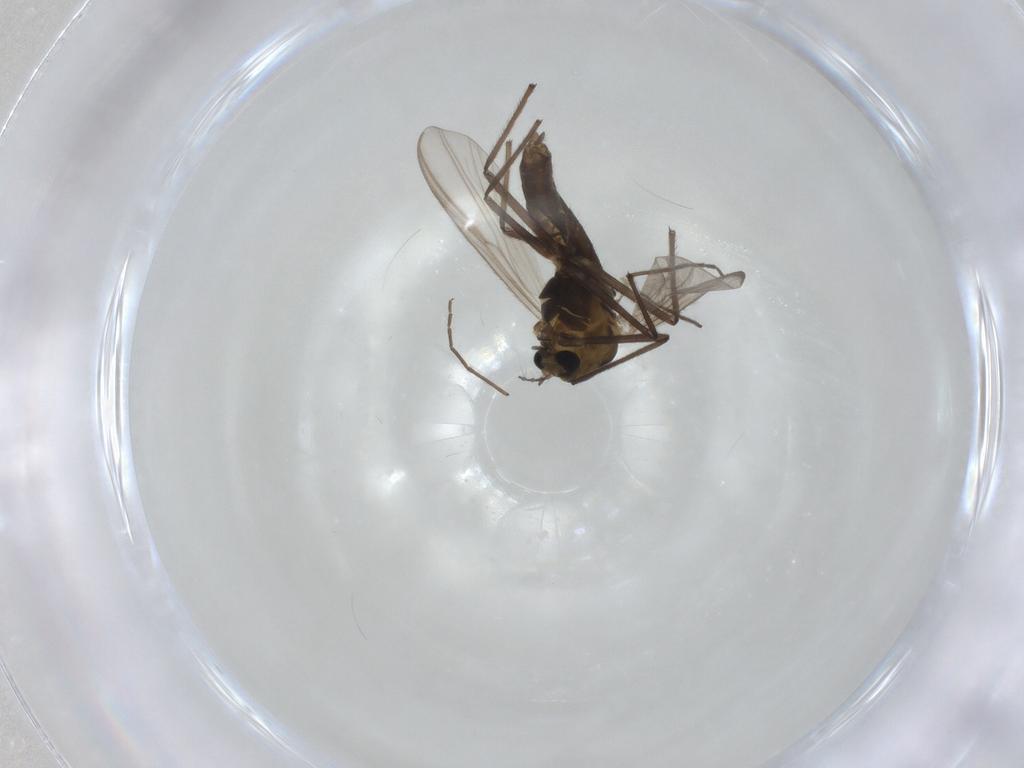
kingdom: Animalia
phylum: Arthropoda
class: Insecta
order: Diptera
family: Chironomidae
